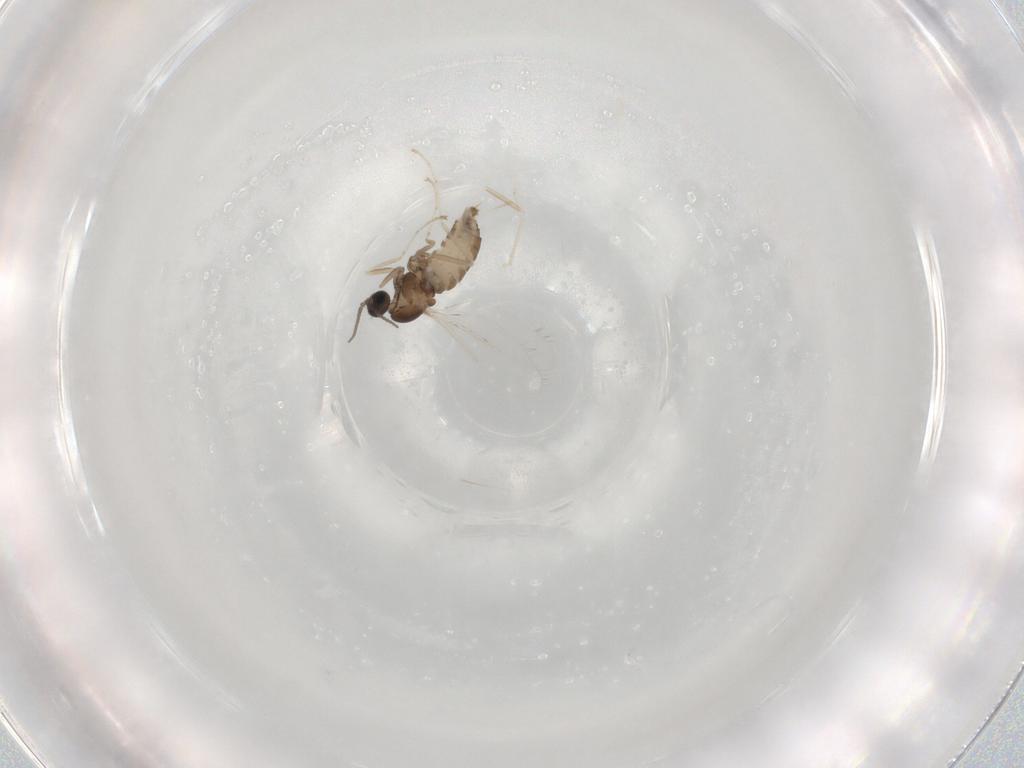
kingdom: Animalia
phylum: Arthropoda
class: Insecta
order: Diptera
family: Cecidomyiidae
